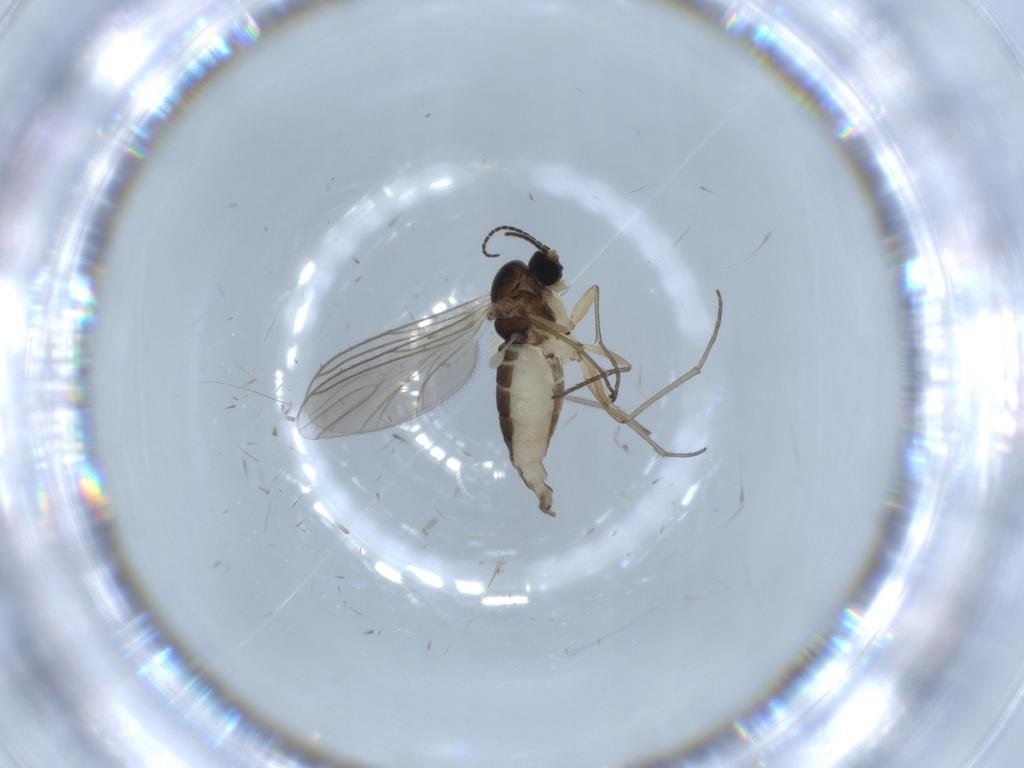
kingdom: Animalia
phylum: Arthropoda
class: Insecta
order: Diptera
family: Sciaridae
